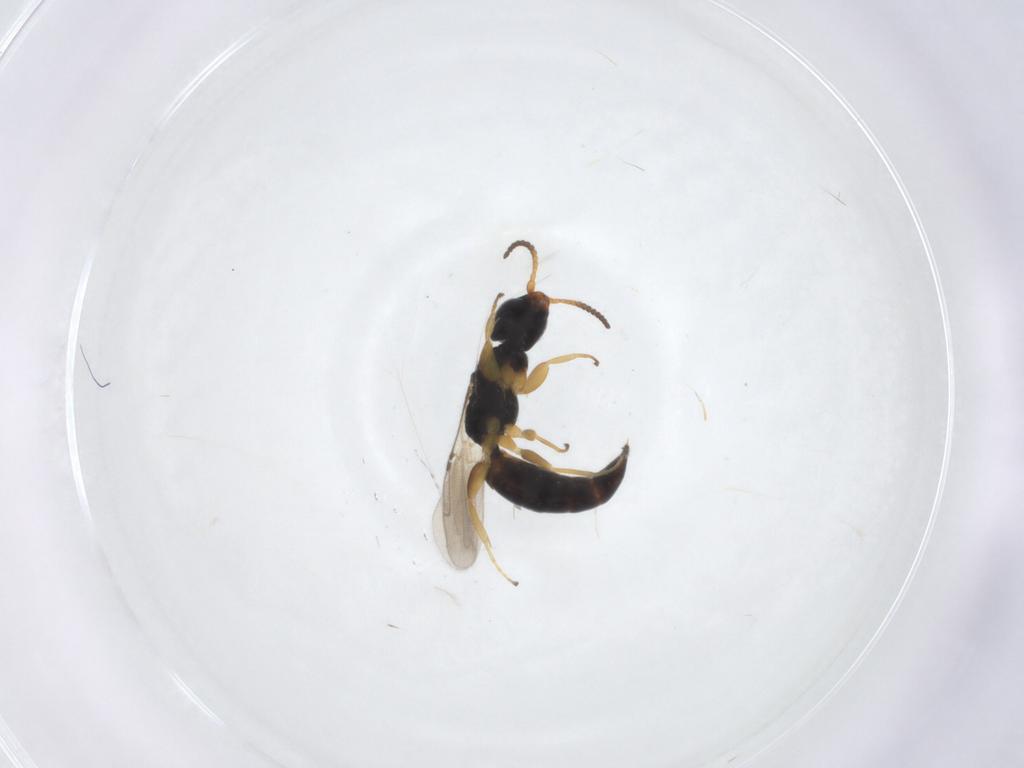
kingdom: Animalia
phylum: Arthropoda
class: Insecta
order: Hymenoptera
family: Bethylidae
